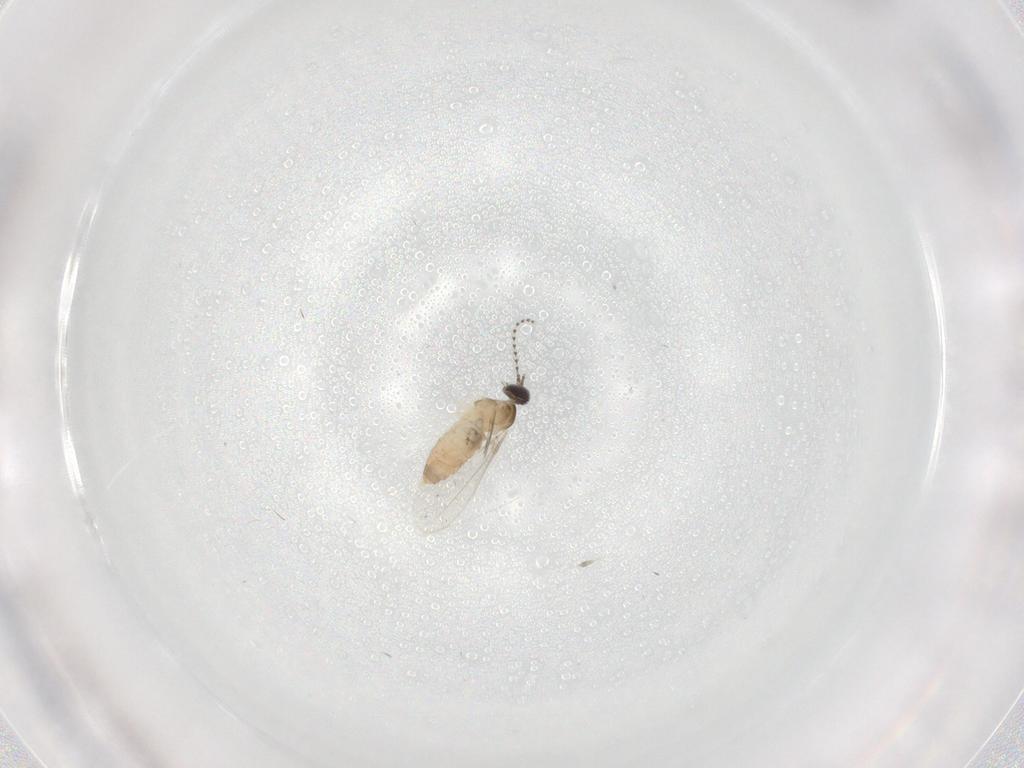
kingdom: Animalia
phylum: Arthropoda
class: Insecta
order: Diptera
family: Cecidomyiidae
